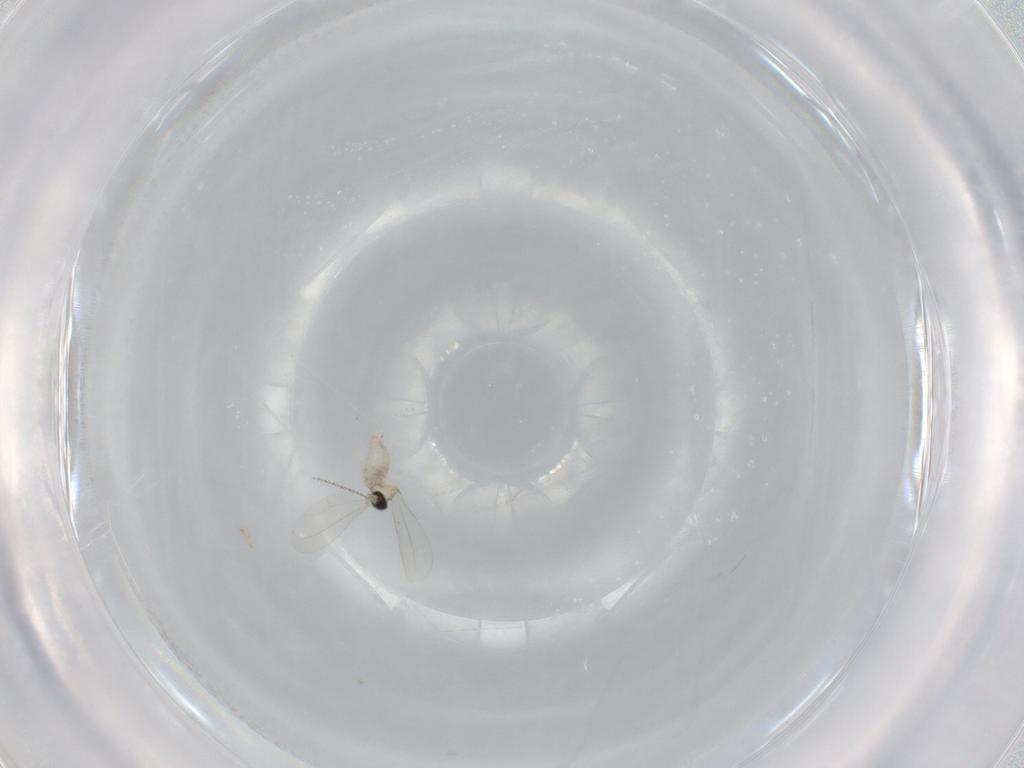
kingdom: Animalia
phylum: Arthropoda
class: Insecta
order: Diptera
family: Cecidomyiidae
